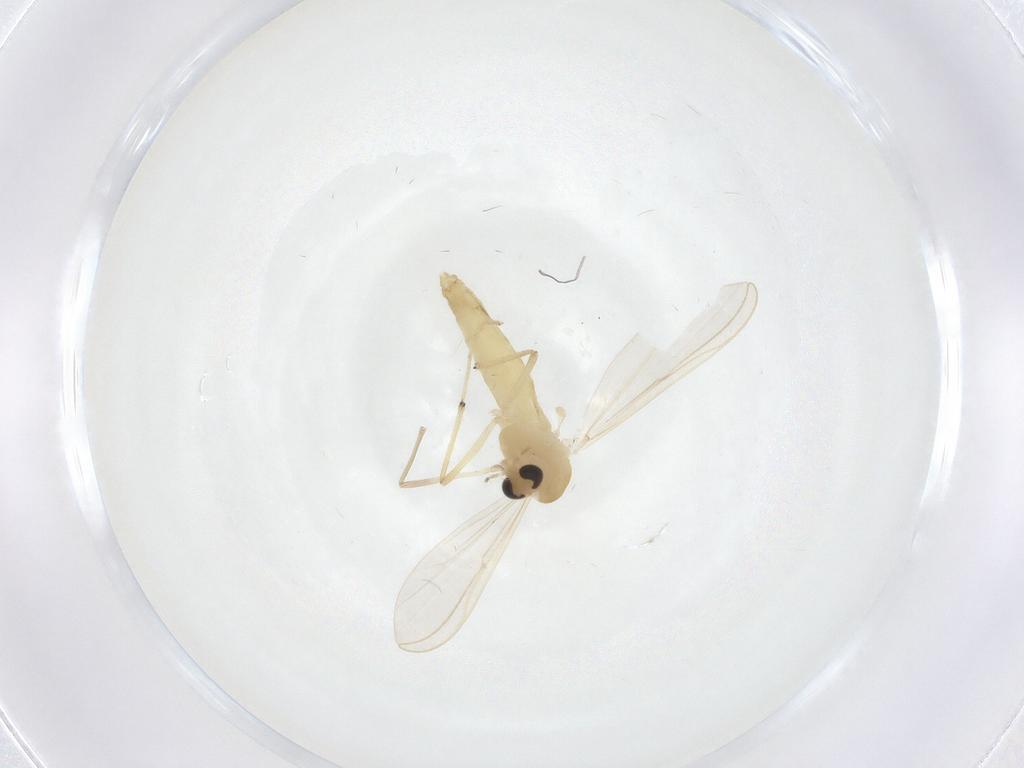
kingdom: Animalia
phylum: Arthropoda
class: Insecta
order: Diptera
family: Chironomidae
